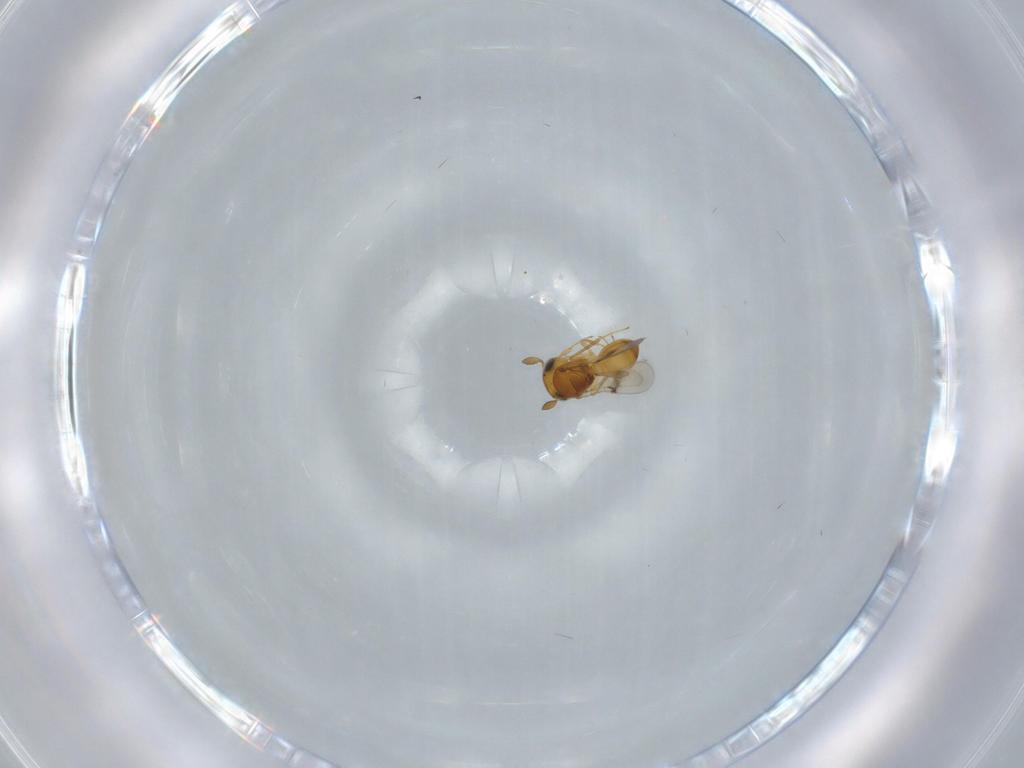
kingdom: Animalia
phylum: Arthropoda
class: Insecta
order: Hymenoptera
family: Scelionidae
